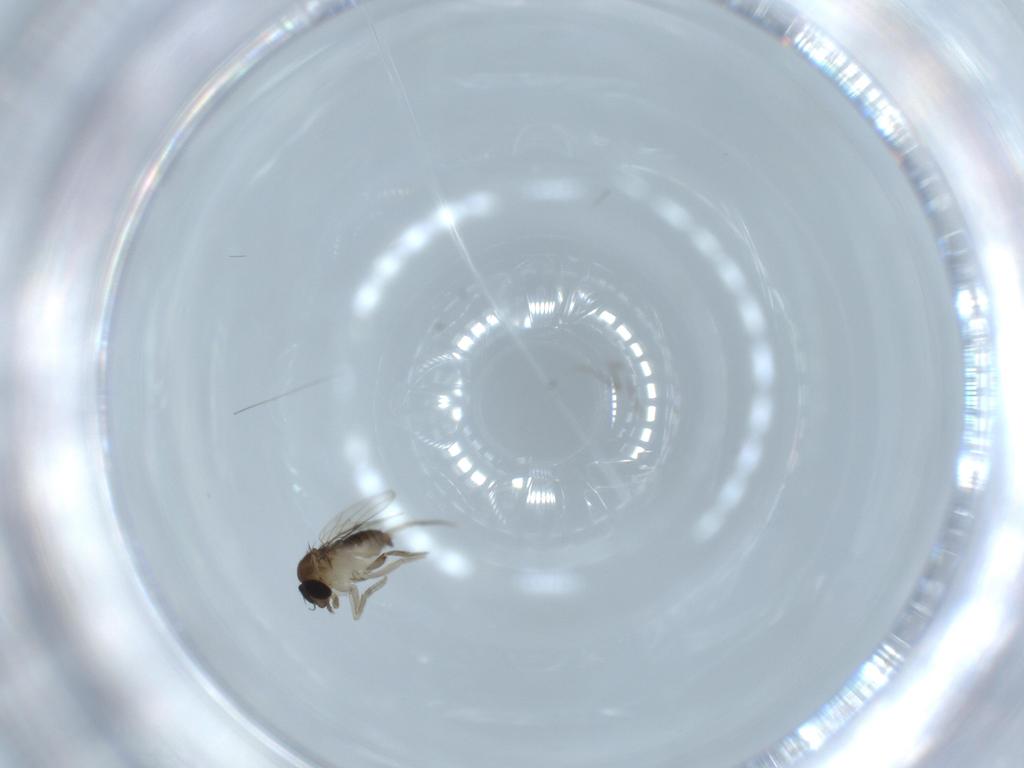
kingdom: Animalia
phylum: Arthropoda
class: Insecta
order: Diptera
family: Phoridae
